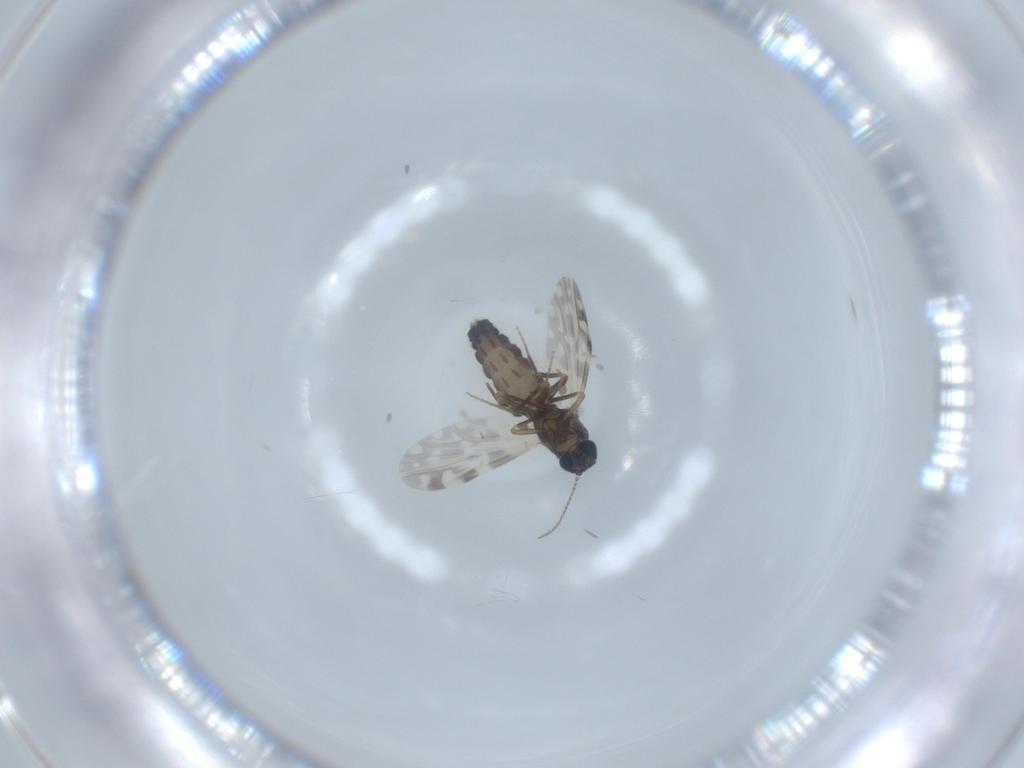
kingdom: Animalia
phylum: Arthropoda
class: Insecta
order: Diptera
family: Ceratopogonidae
